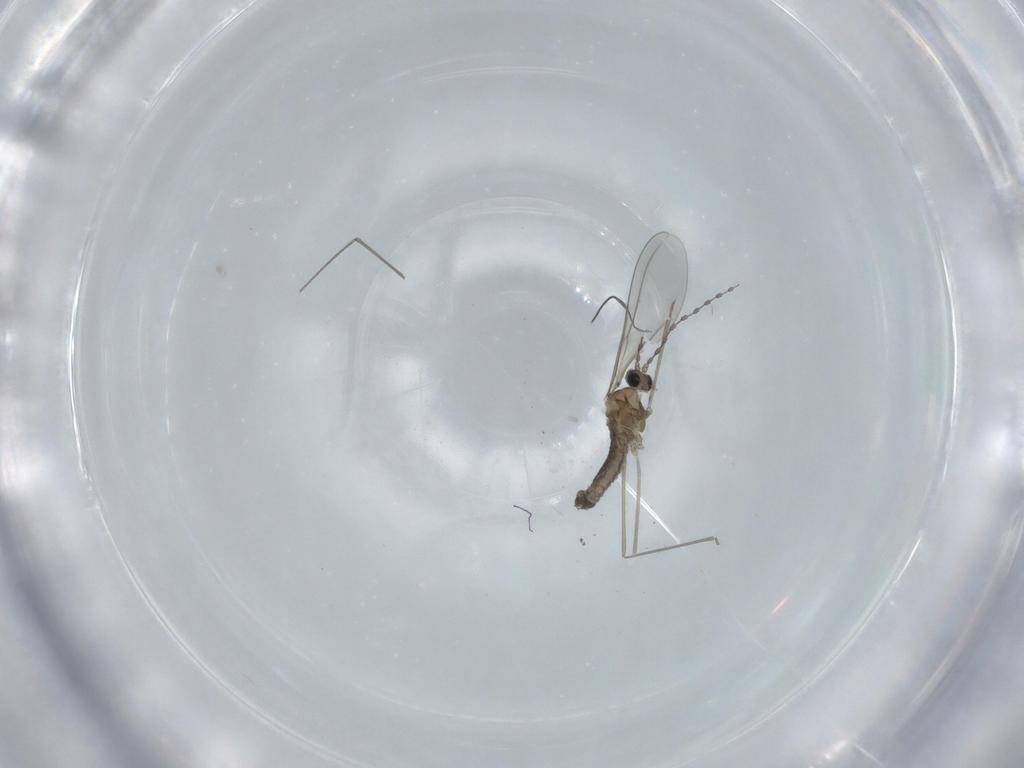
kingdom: Animalia
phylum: Arthropoda
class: Insecta
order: Diptera
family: Cecidomyiidae
